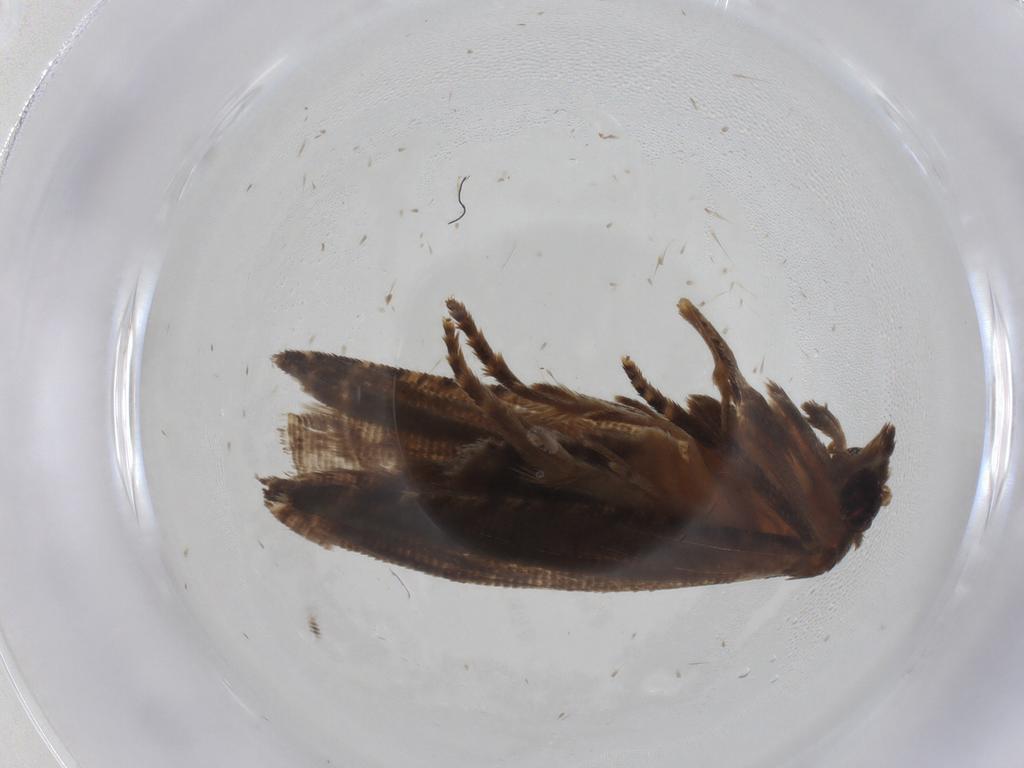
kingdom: Animalia
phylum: Arthropoda
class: Insecta
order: Lepidoptera
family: Tortricidae
